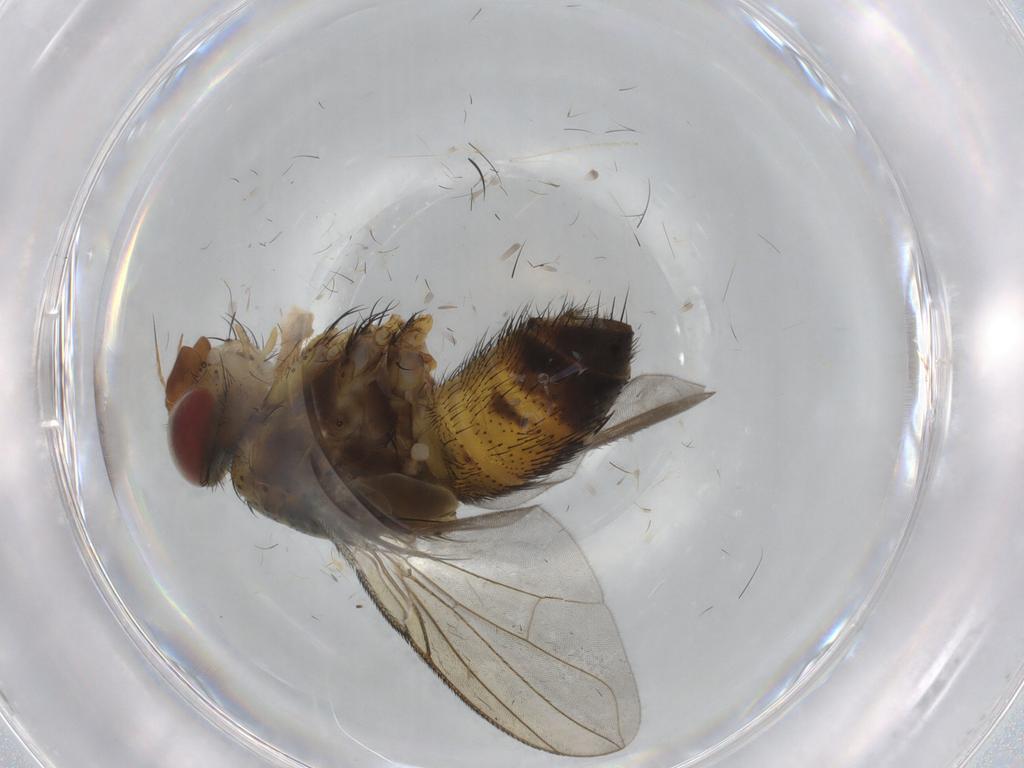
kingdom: Animalia
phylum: Arthropoda
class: Insecta
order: Diptera
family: Tachinidae
